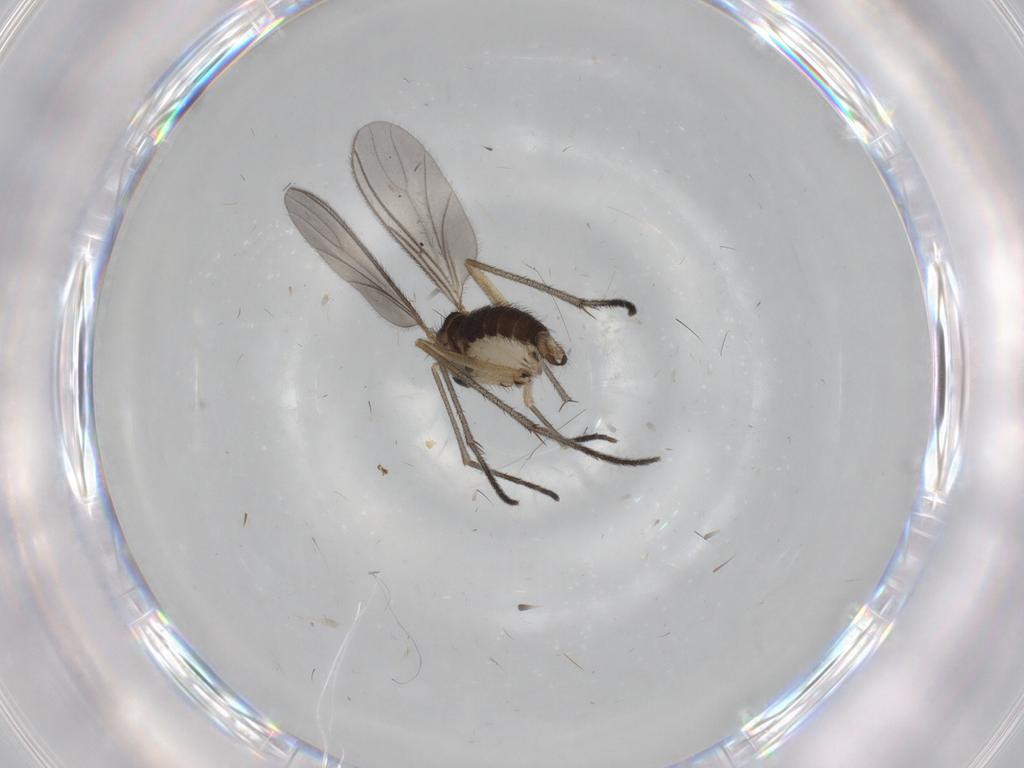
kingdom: Animalia
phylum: Arthropoda
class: Insecta
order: Diptera
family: Sciaridae
